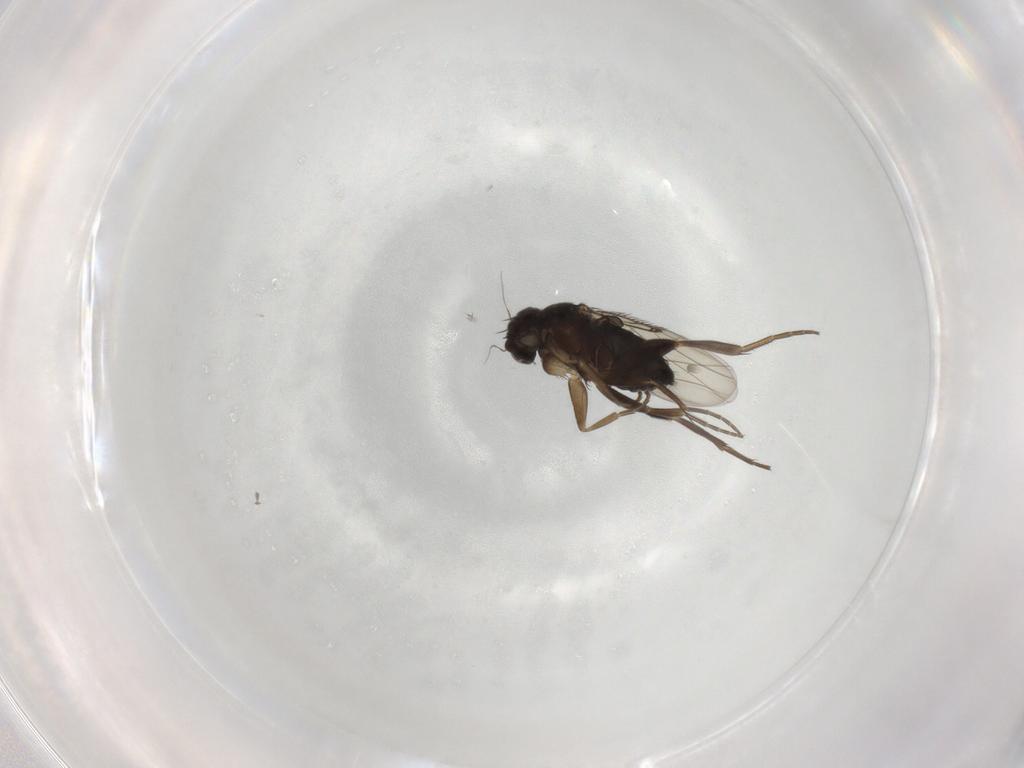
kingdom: Animalia
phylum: Arthropoda
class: Insecta
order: Diptera
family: Phoridae
